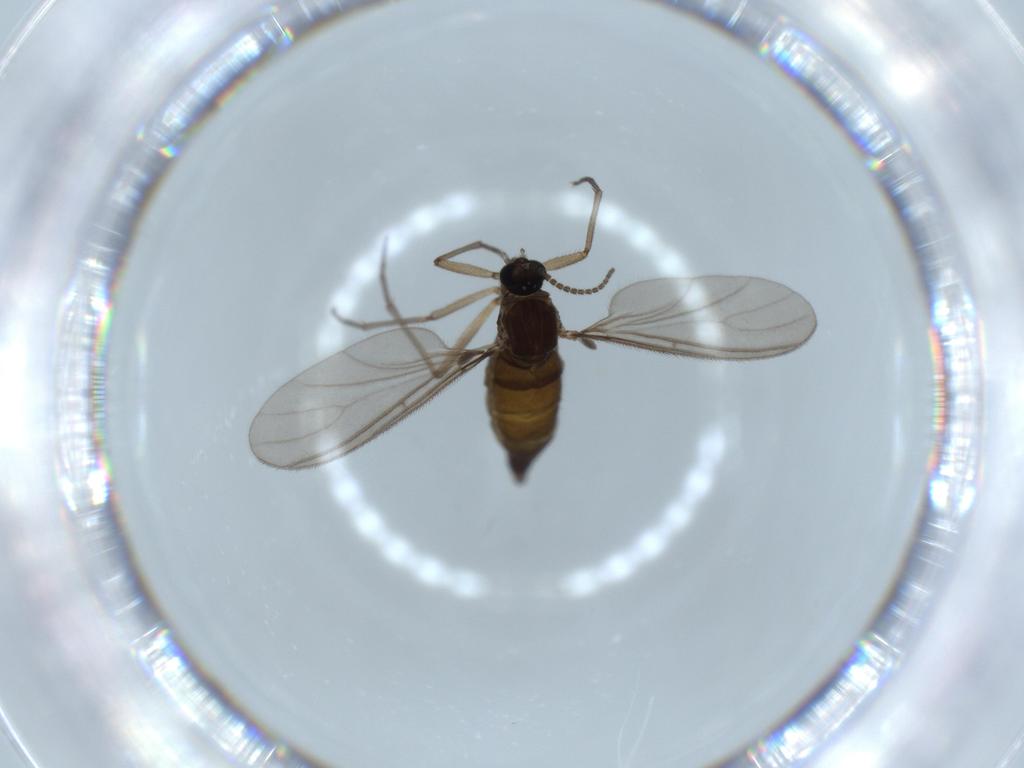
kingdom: Animalia
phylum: Arthropoda
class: Insecta
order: Diptera
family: Sciaridae
